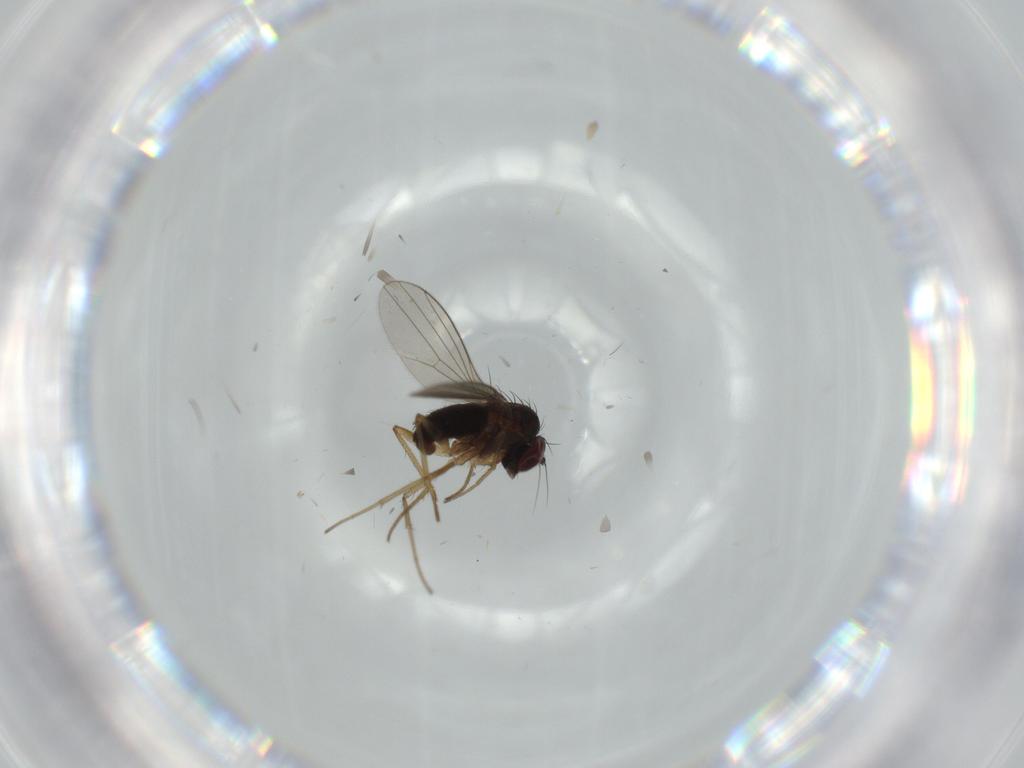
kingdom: Animalia
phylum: Arthropoda
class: Insecta
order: Diptera
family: Dolichopodidae
